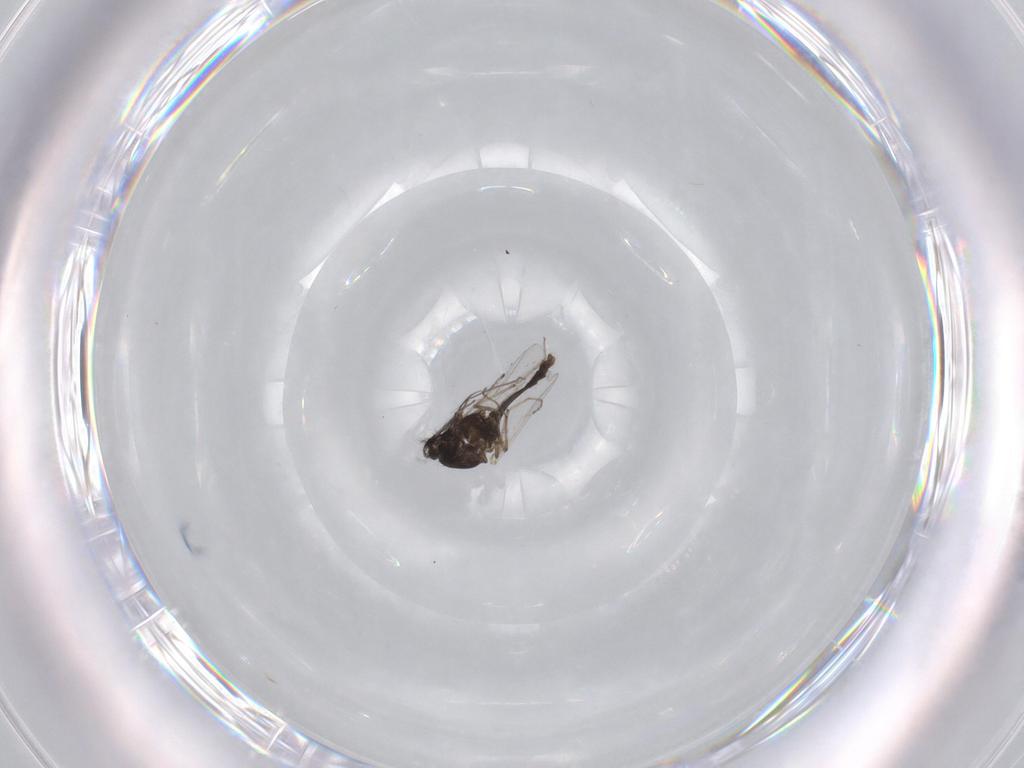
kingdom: Animalia
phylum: Arthropoda
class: Insecta
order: Diptera
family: Chironomidae
